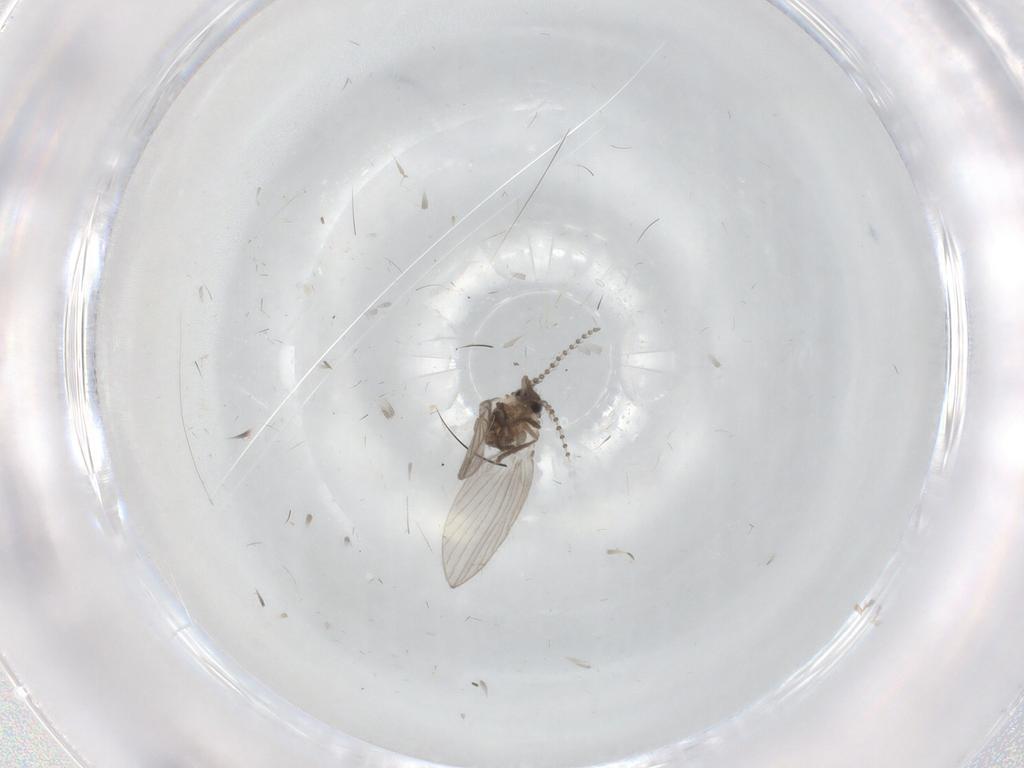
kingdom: Animalia
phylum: Arthropoda
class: Insecta
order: Diptera
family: Psychodidae
